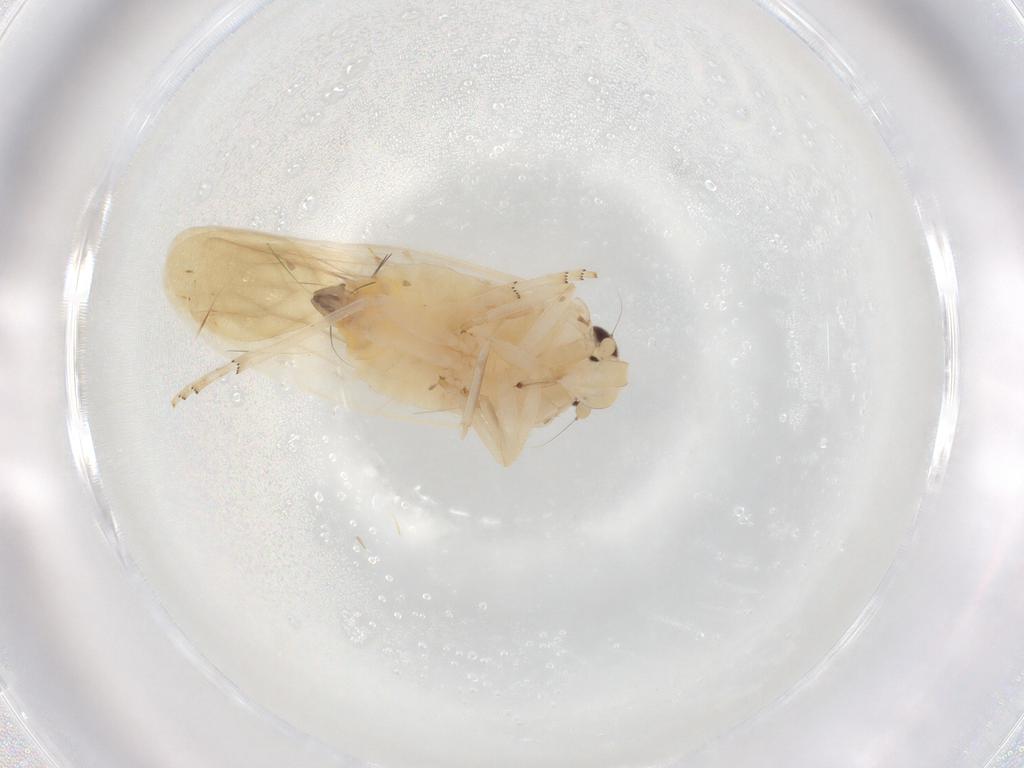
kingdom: Animalia
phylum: Arthropoda
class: Insecta
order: Hemiptera
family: Achilidae
